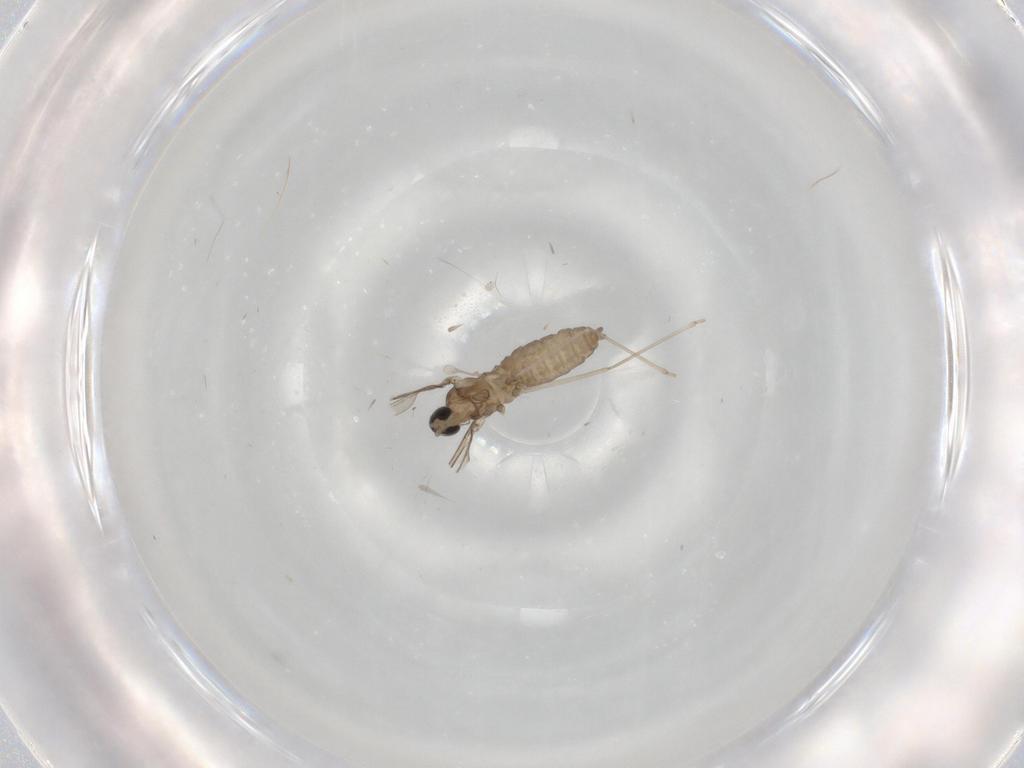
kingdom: Animalia
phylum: Arthropoda
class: Insecta
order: Diptera
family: Cecidomyiidae
